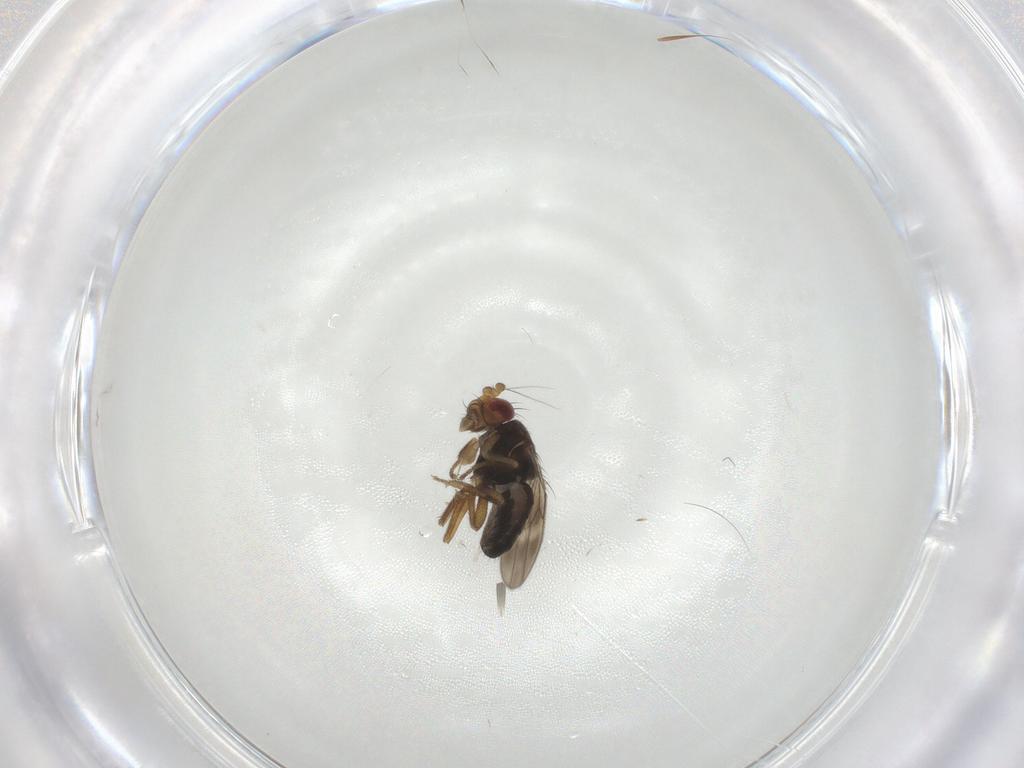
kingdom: Animalia
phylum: Arthropoda
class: Insecta
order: Diptera
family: Sphaeroceridae
